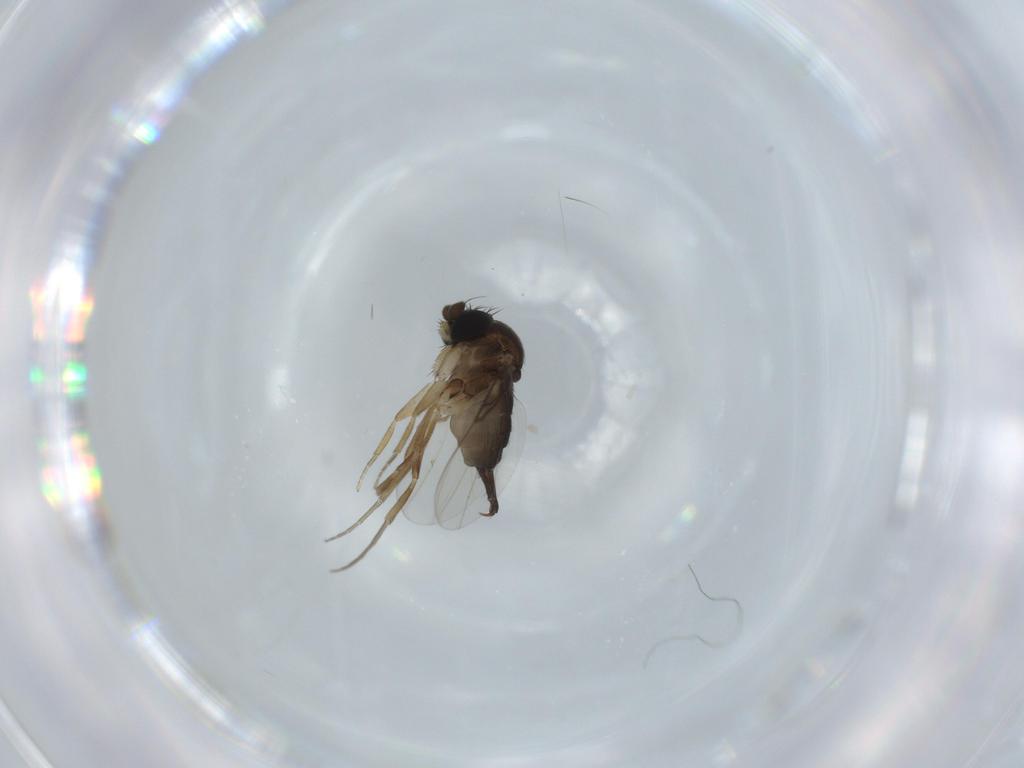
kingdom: Animalia
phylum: Arthropoda
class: Insecta
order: Diptera
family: Phoridae
